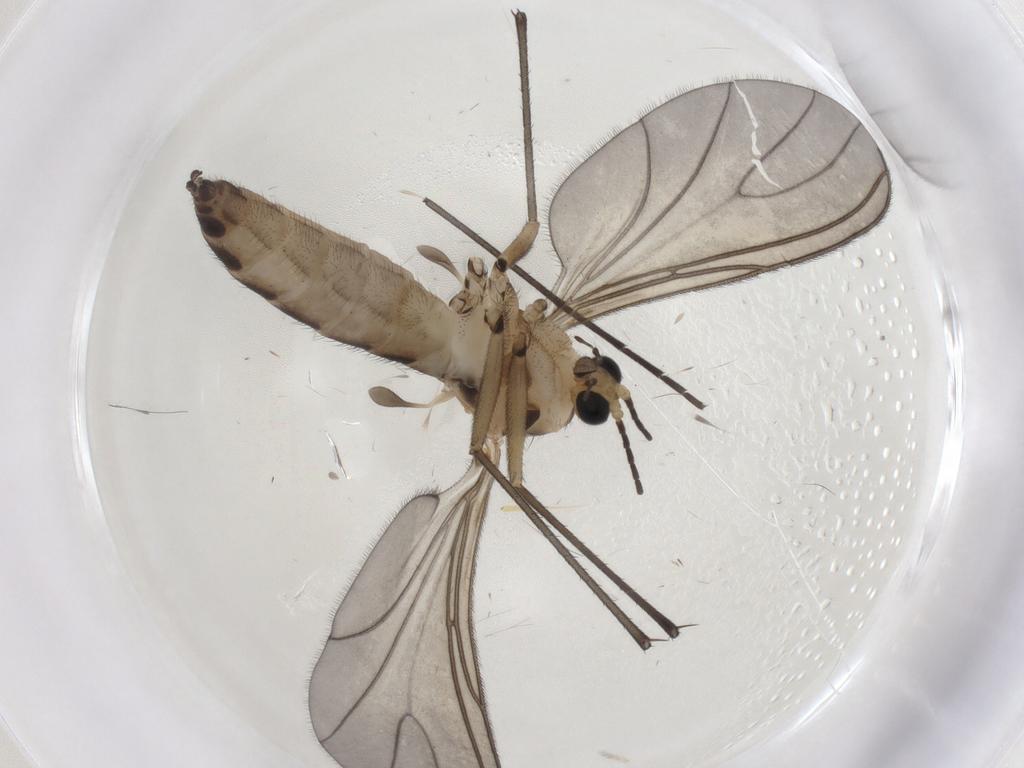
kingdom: Animalia
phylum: Arthropoda
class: Insecta
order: Diptera
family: Sciaridae
